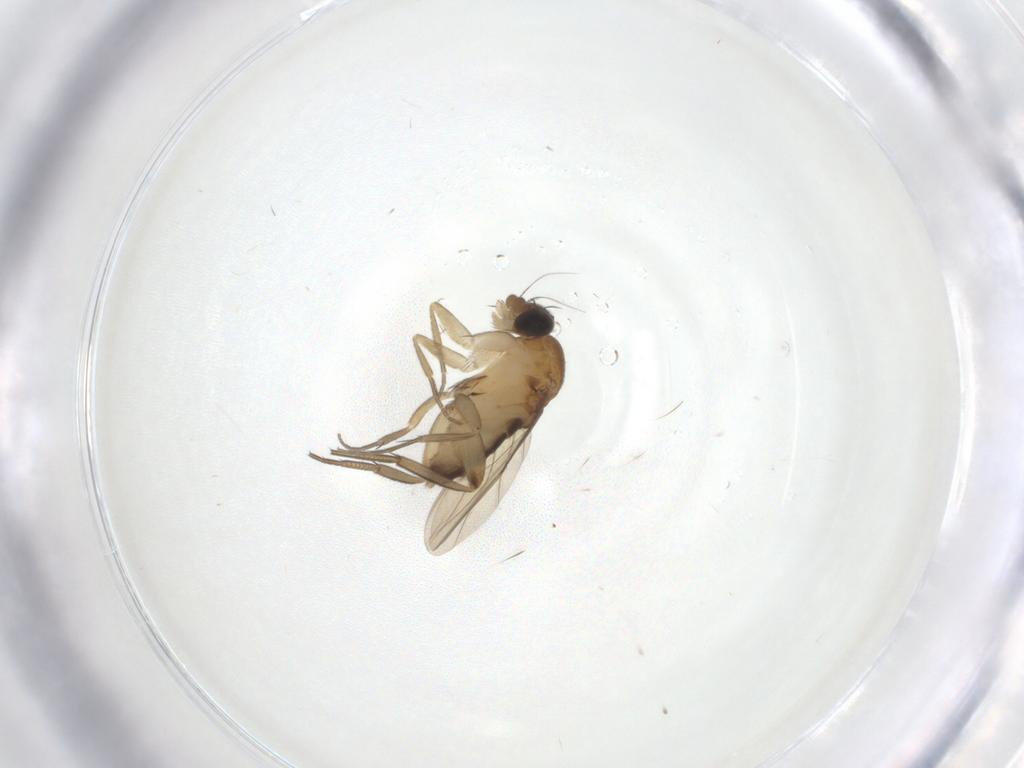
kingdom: Animalia
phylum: Arthropoda
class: Insecta
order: Diptera
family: Phoridae
